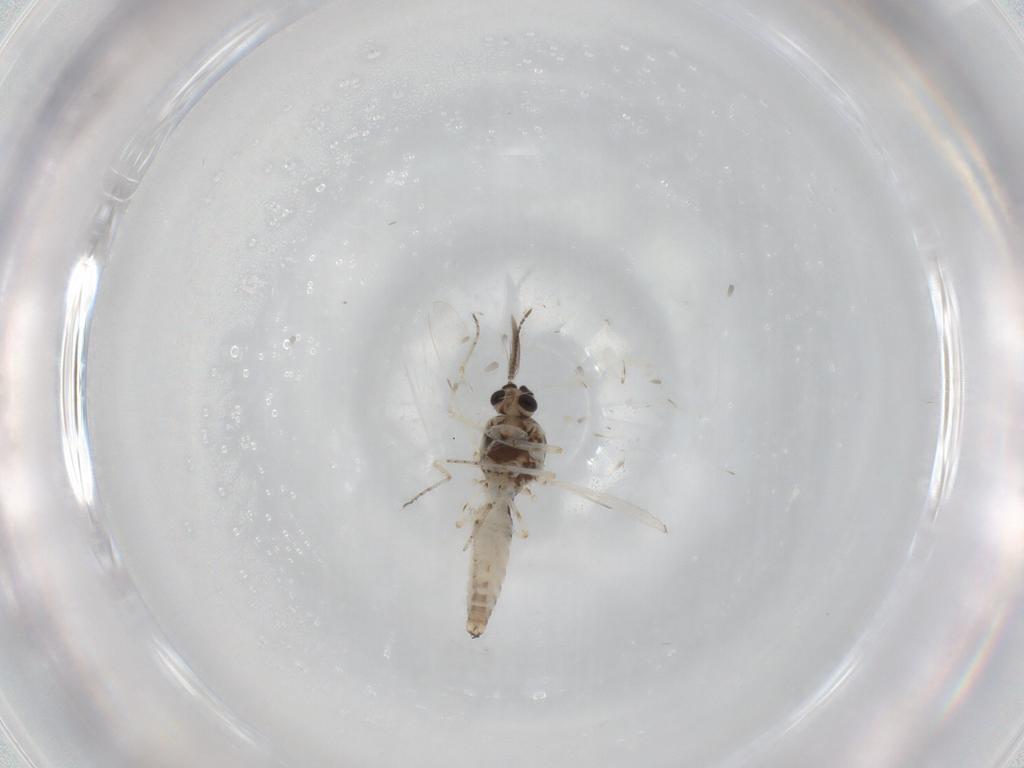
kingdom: Animalia
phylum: Arthropoda
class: Insecta
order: Diptera
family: Ceratopogonidae
